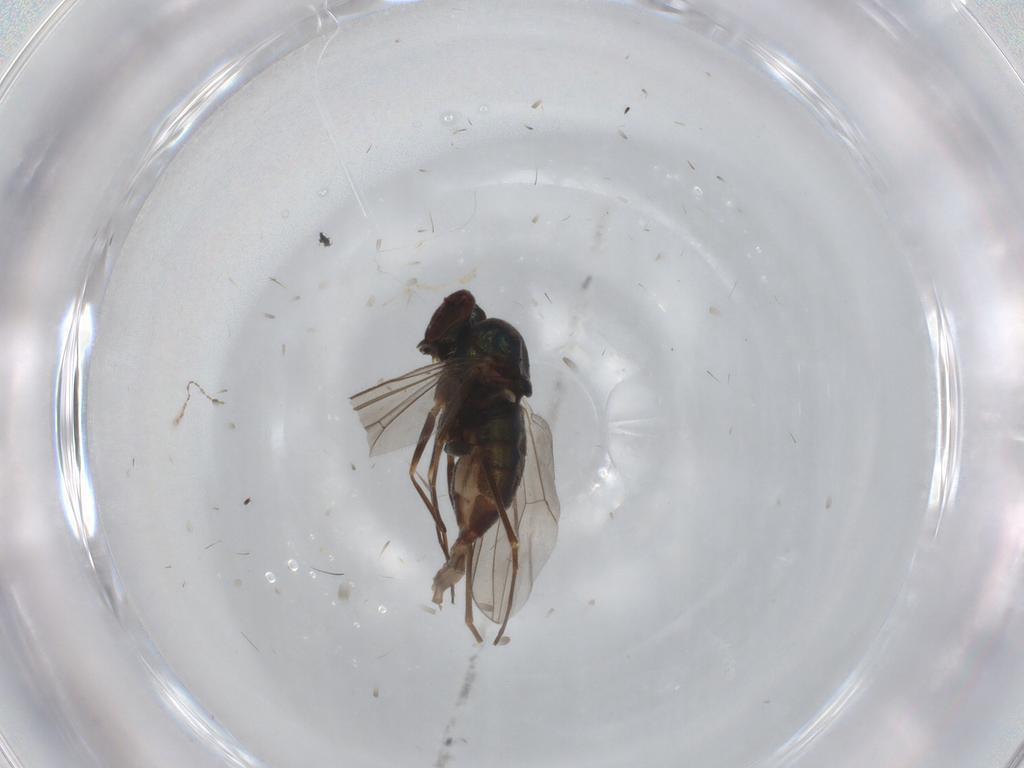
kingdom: Animalia
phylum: Arthropoda
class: Insecta
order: Diptera
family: Dolichopodidae
